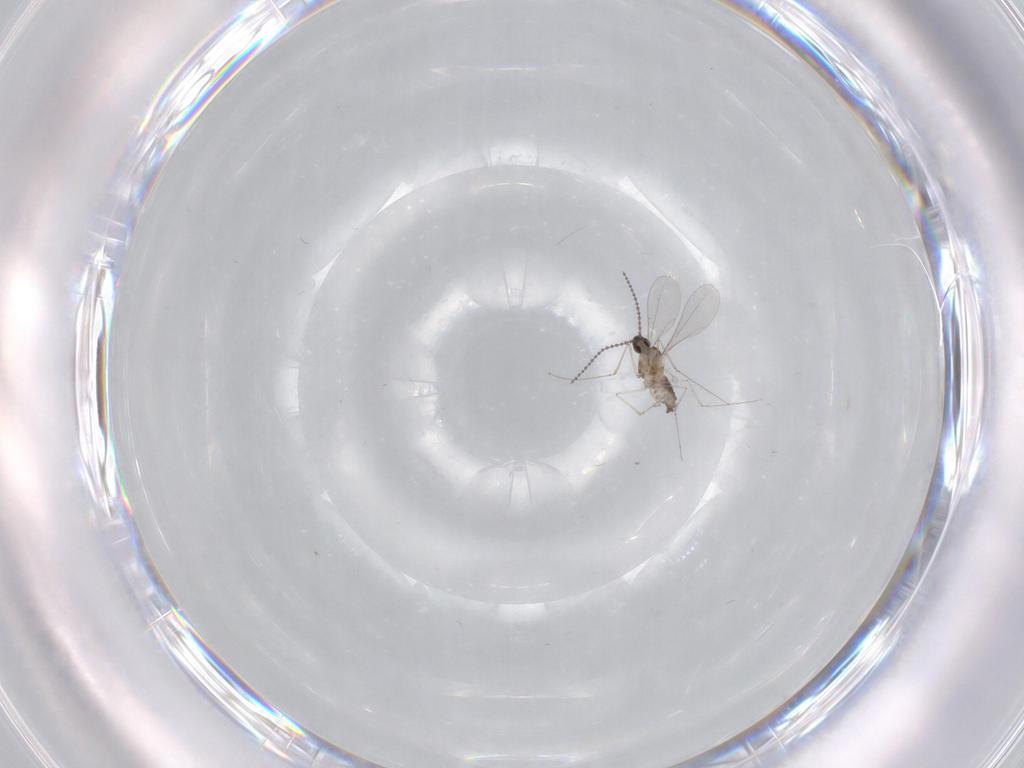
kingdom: Animalia
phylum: Arthropoda
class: Insecta
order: Diptera
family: Cecidomyiidae
